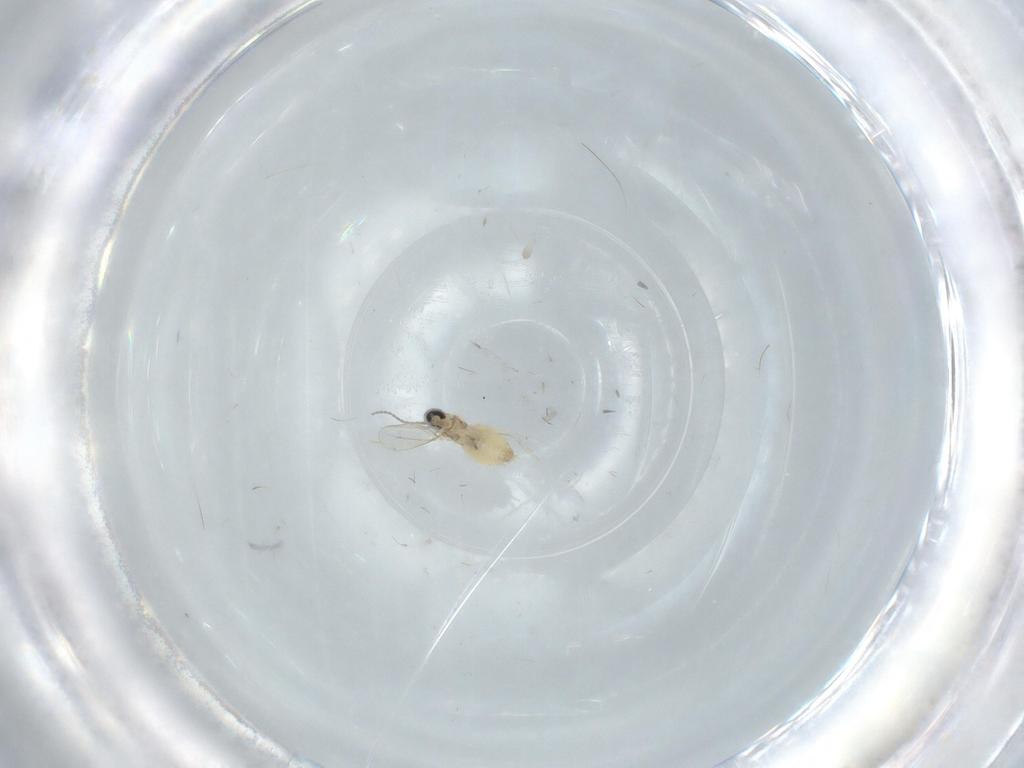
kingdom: Animalia
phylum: Arthropoda
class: Insecta
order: Diptera
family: Cecidomyiidae
